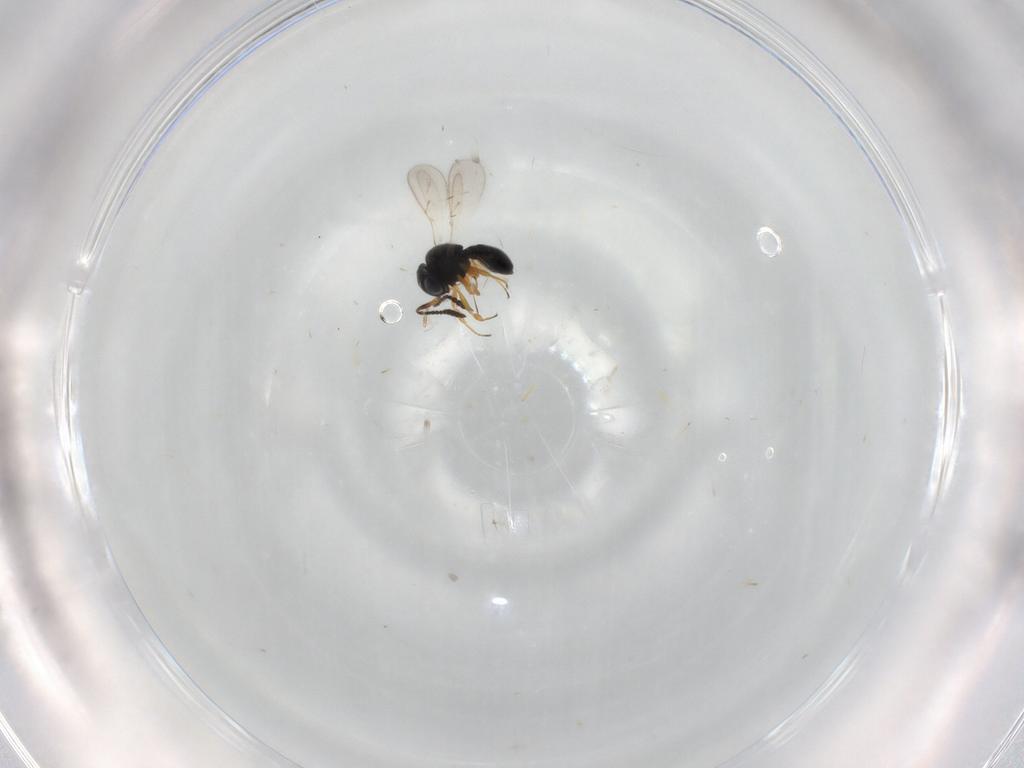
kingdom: Animalia
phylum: Arthropoda
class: Insecta
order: Hymenoptera
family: Scelionidae
